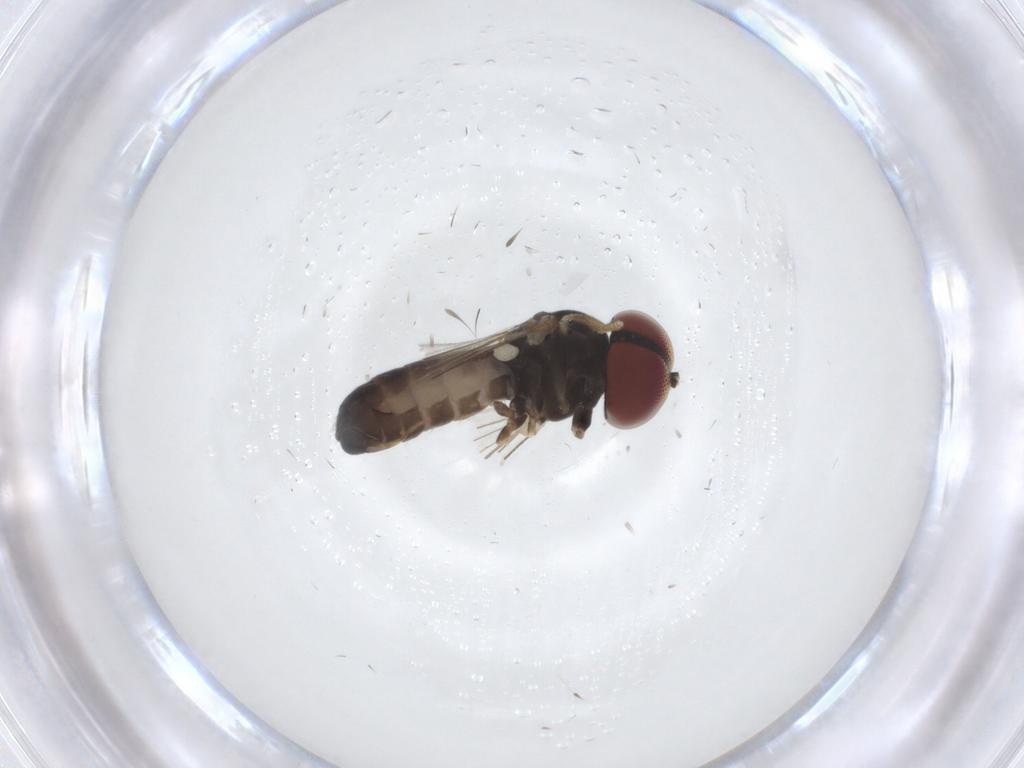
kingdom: Animalia
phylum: Arthropoda
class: Insecta
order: Diptera
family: Pipunculidae
